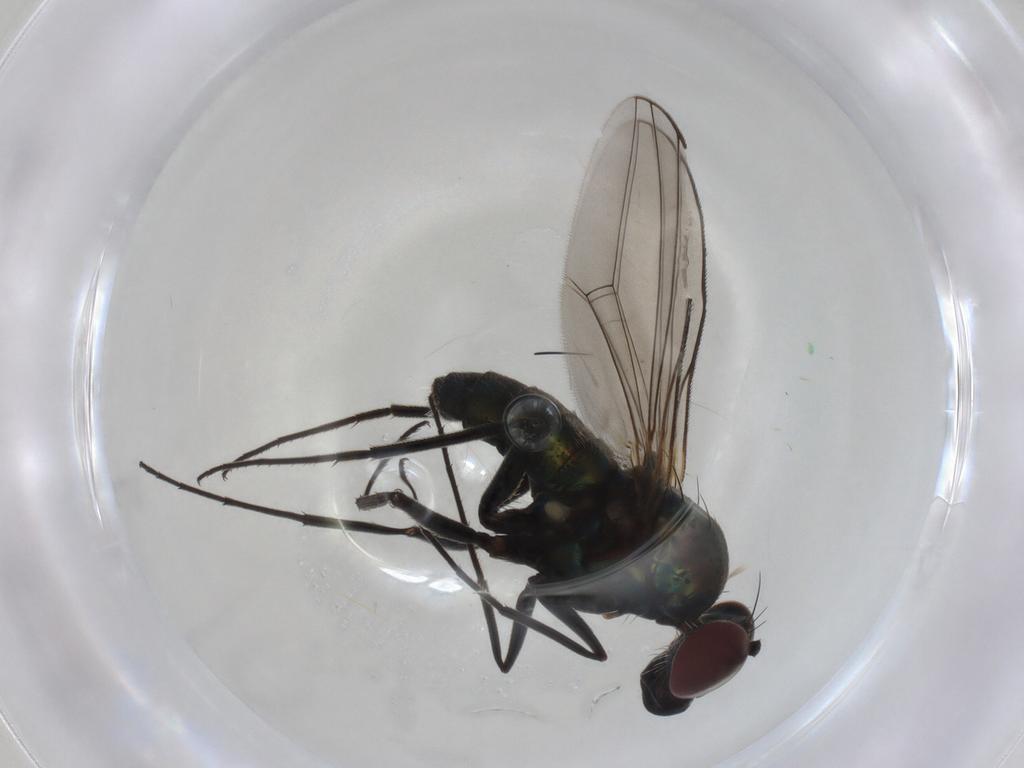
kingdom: Animalia
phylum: Arthropoda
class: Insecta
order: Diptera
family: Dolichopodidae
